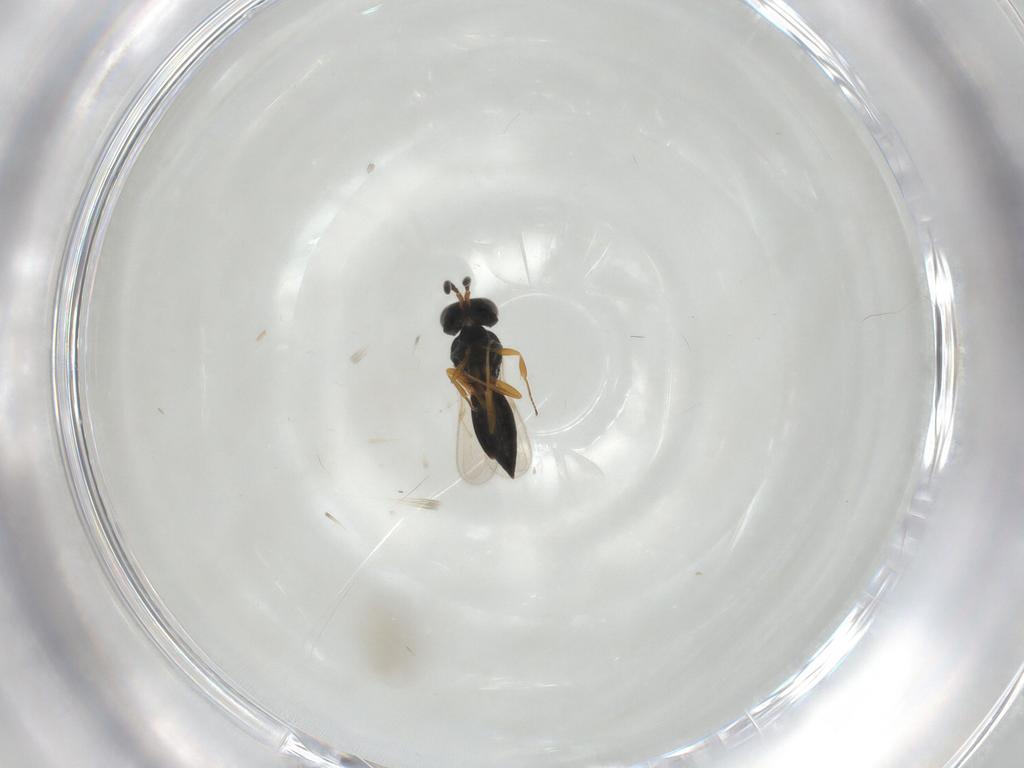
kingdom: Animalia
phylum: Arthropoda
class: Insecta
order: Hymenoptera
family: Scelionidae
